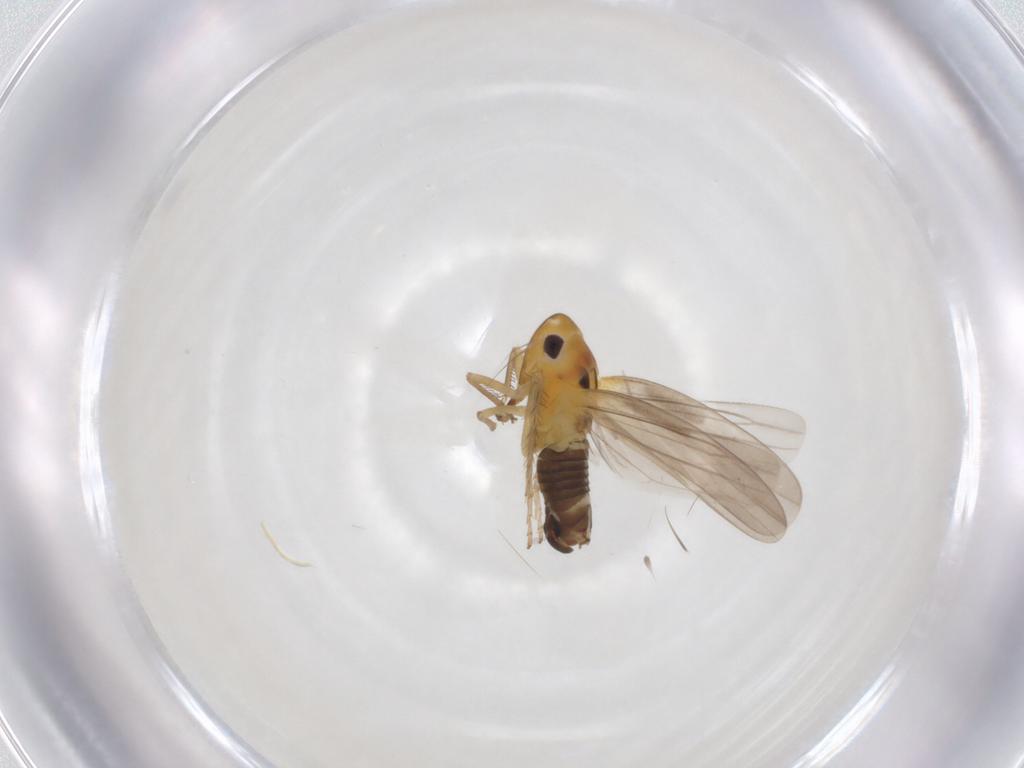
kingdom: Animalia
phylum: Arthropoda
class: Insecta
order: Hemiptera
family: Cicadellidae
